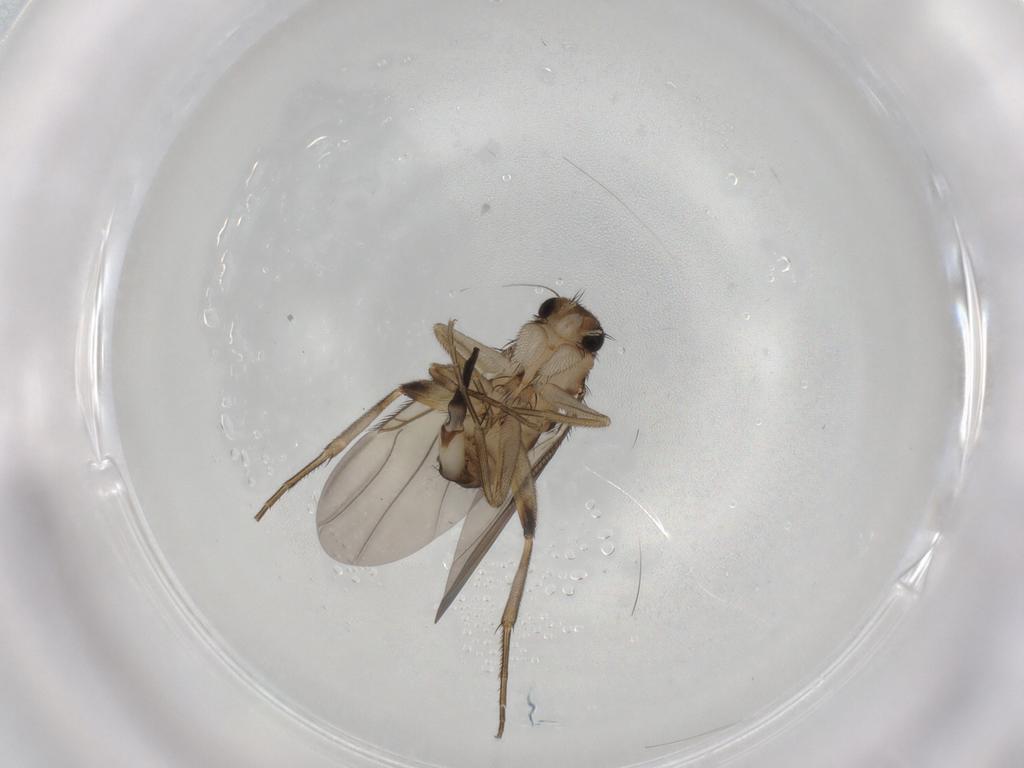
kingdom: Animalia
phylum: Arthropoda
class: Insecta
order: Diptera
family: Phoridae
